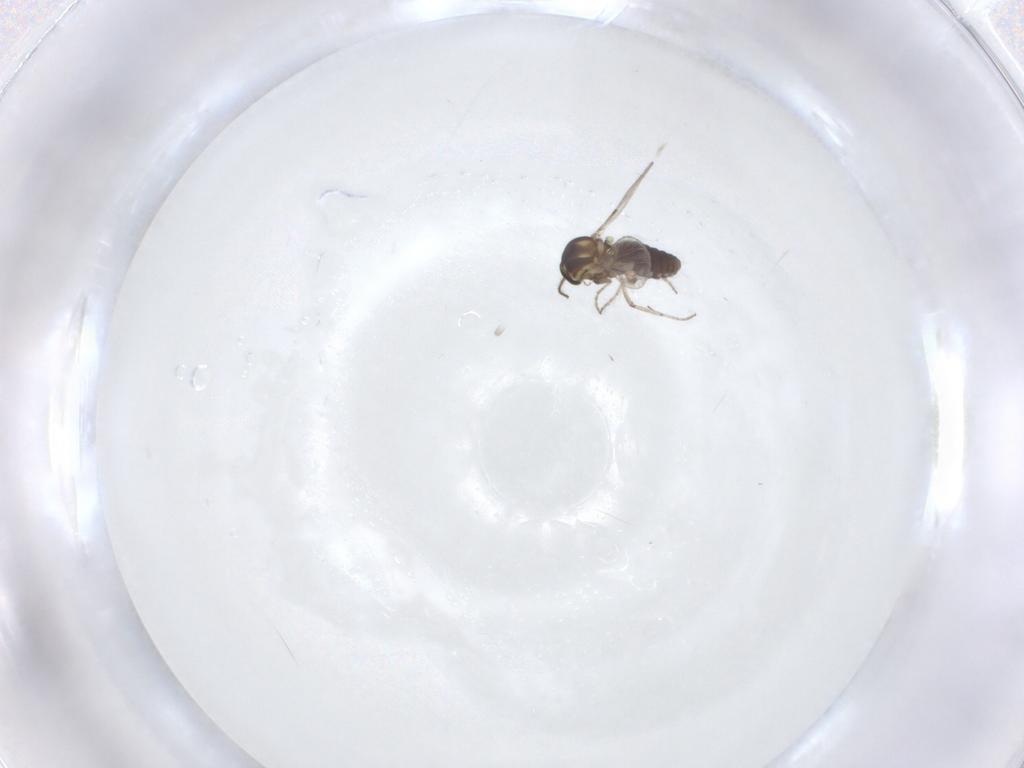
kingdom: Animalia
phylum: Arthropoda
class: Insecta
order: Diptera
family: Ceratopogonidae
